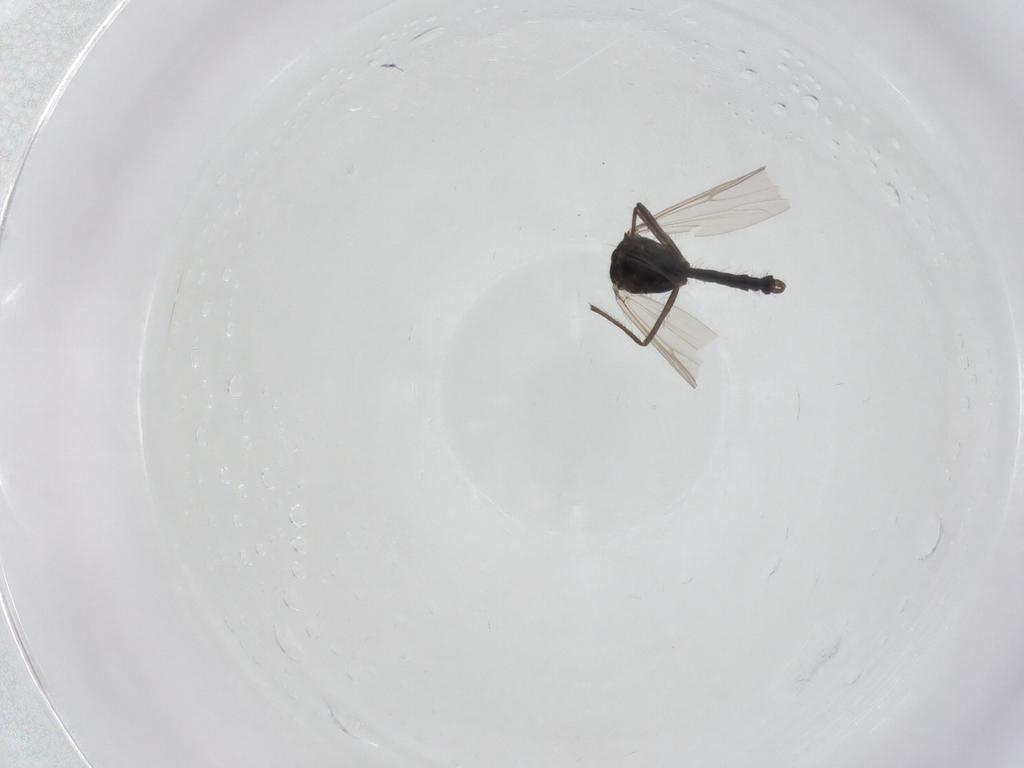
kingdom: Animalia
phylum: Arthropoda
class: Insecta
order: Diptera
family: Chironomidae
